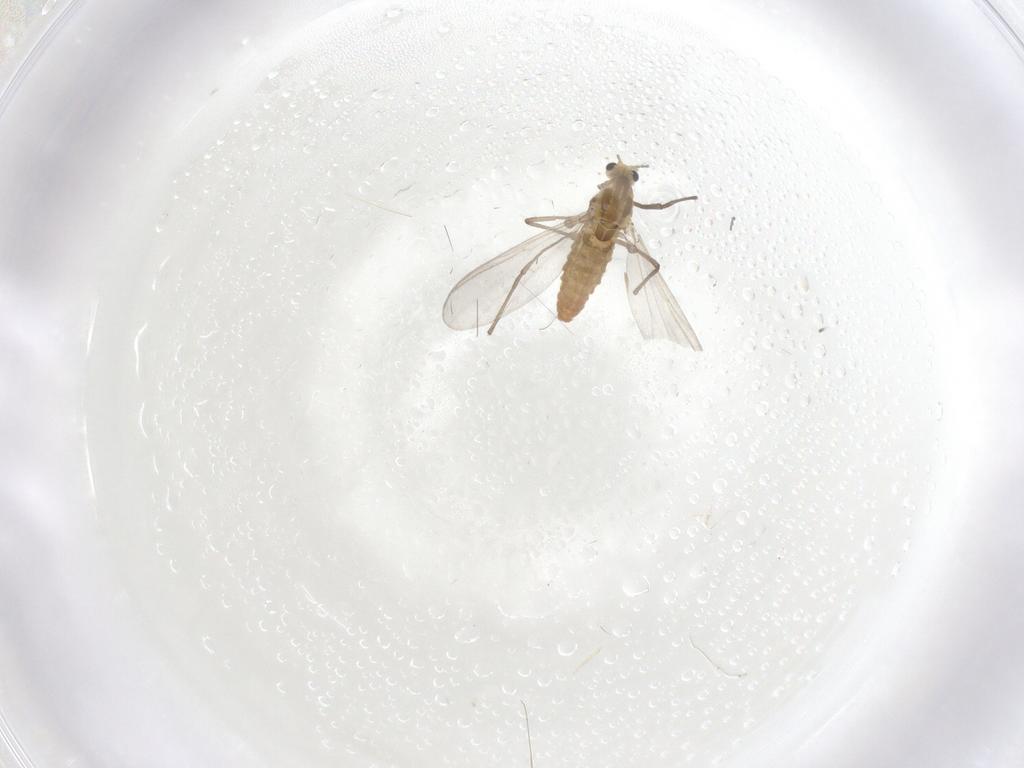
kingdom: Animalia
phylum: Arthropoda
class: Insecta
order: Diptera
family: Chironomidae
